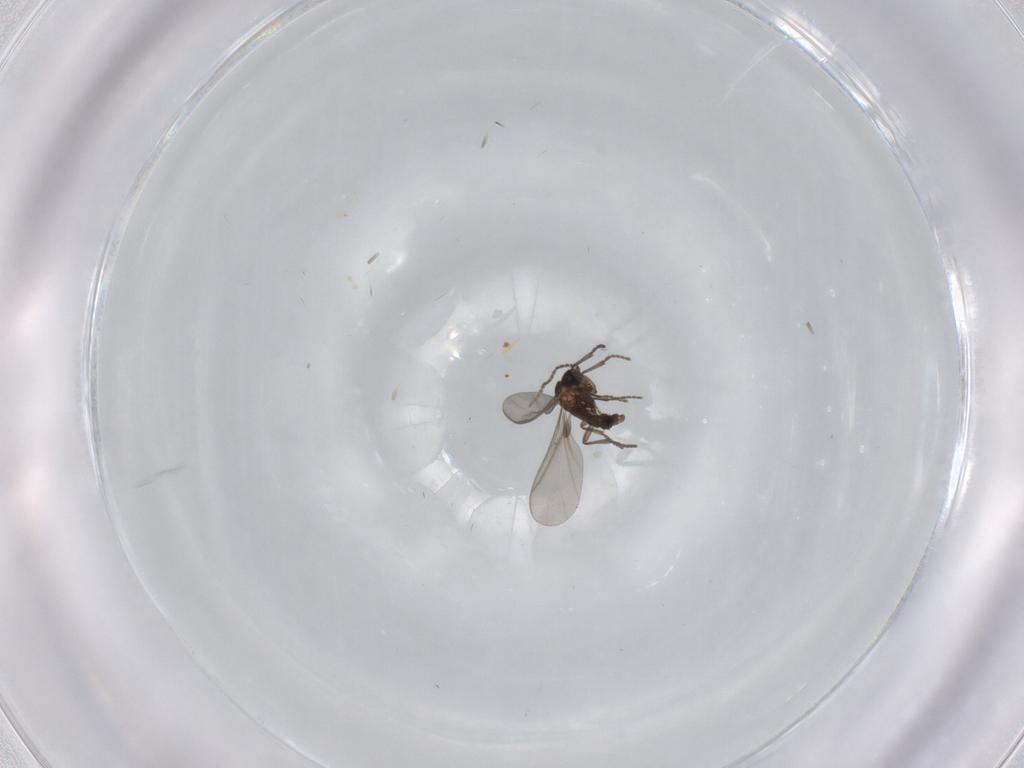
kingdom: Animalia
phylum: Arthropoda
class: Insecta
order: Diptera
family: Sciaridae
